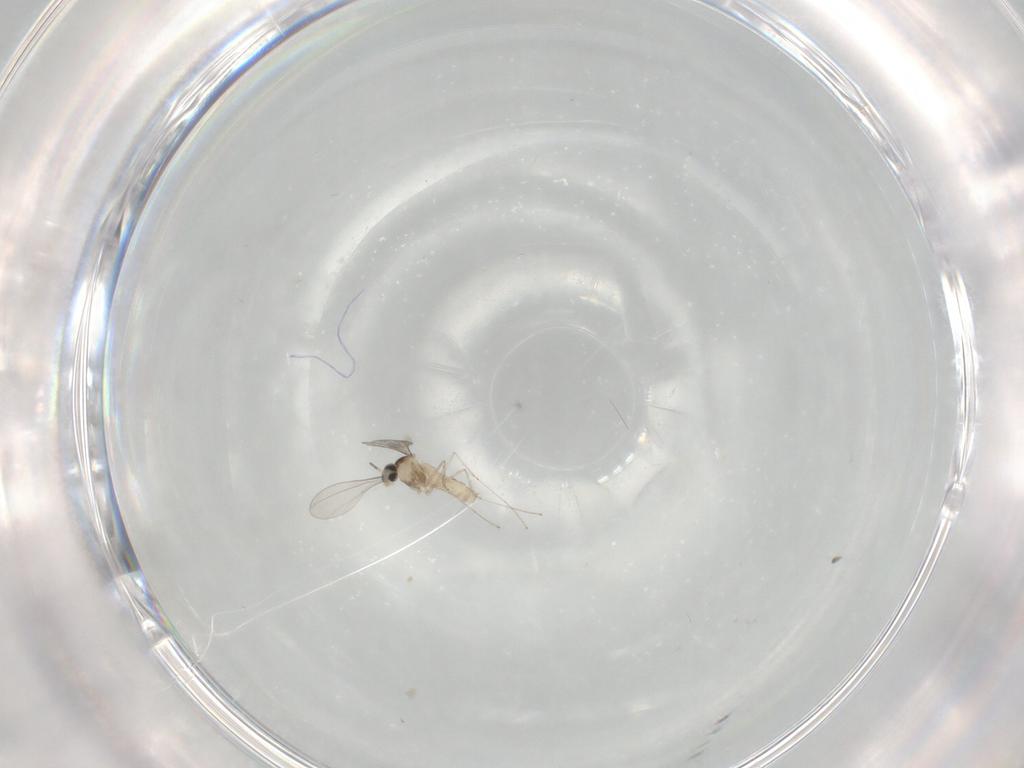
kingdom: Animalia
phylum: Arthropoda
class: Insecta
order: Diptera
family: Cecidomyiidae
